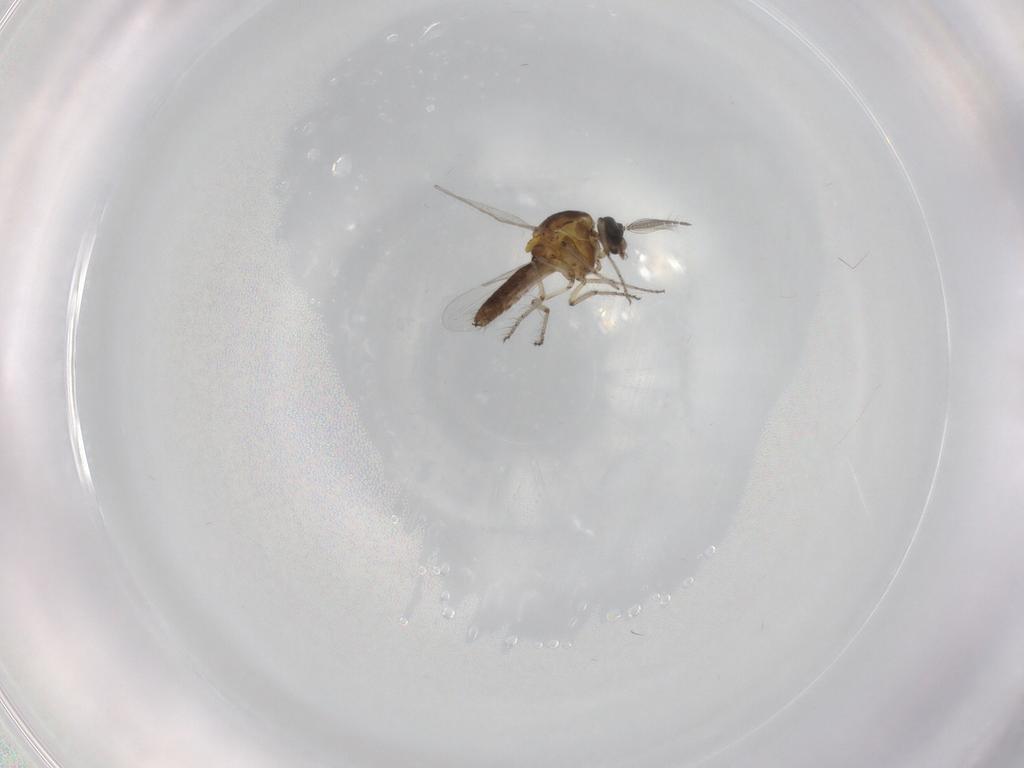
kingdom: Animalia
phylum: Arthropoda
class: Insecta
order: Diptera
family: Ceratopogonidae
